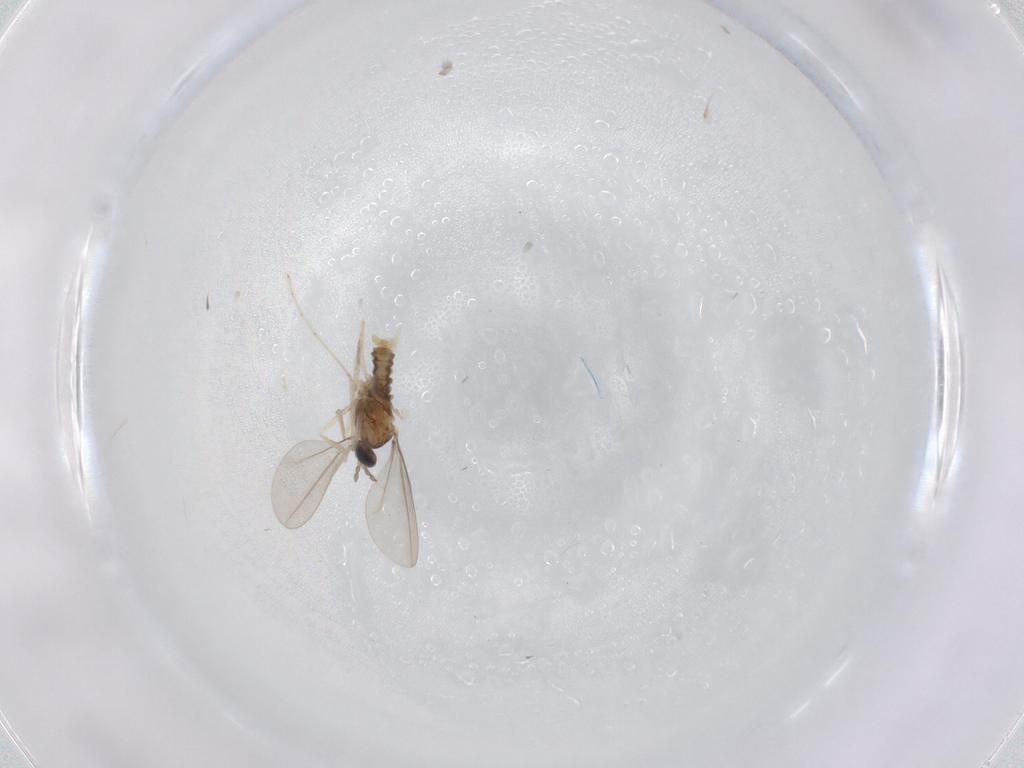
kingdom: Animalia
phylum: Arthropoda
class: Insecta
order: Diptera
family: Cecidomyiidae
